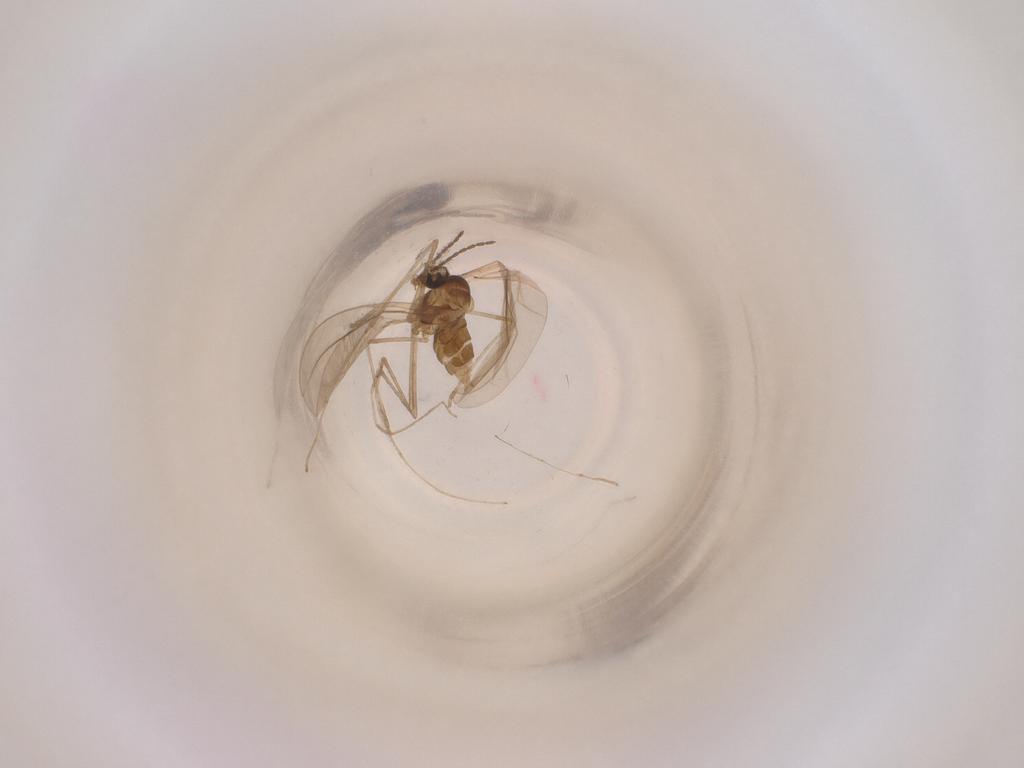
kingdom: Animalia
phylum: Arthropoda
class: Insecta
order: Diptera
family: Cecidomyiidae
